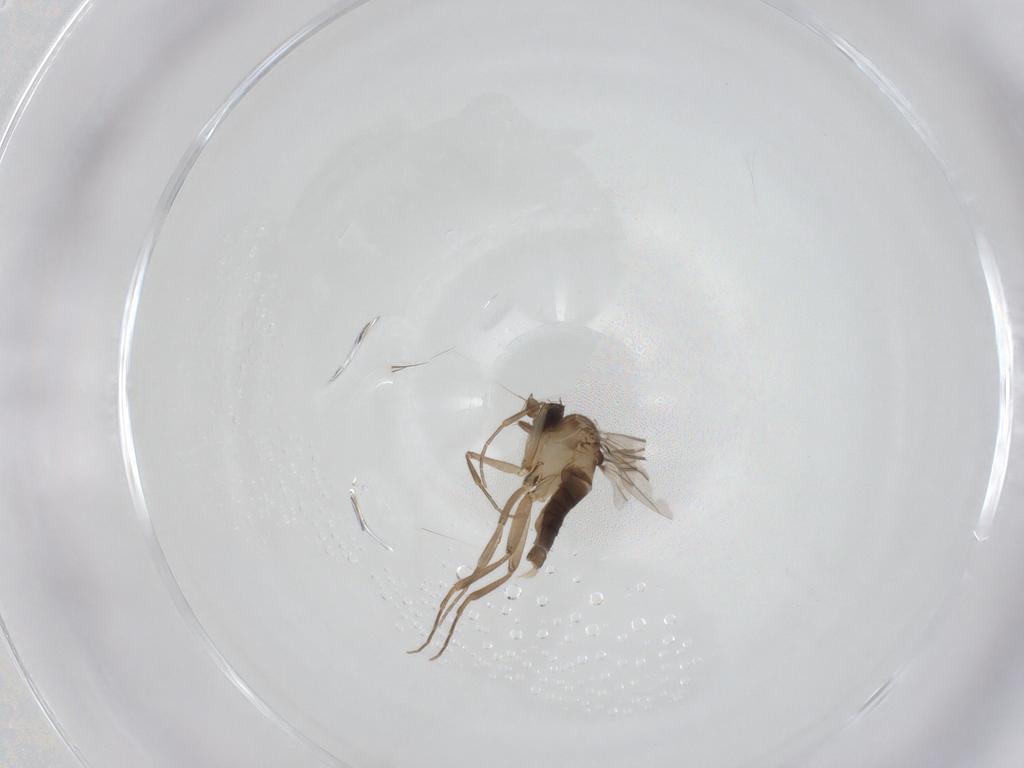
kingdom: Animalia
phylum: Arthropoda
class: Insecta
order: Diptera
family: Phoridae
